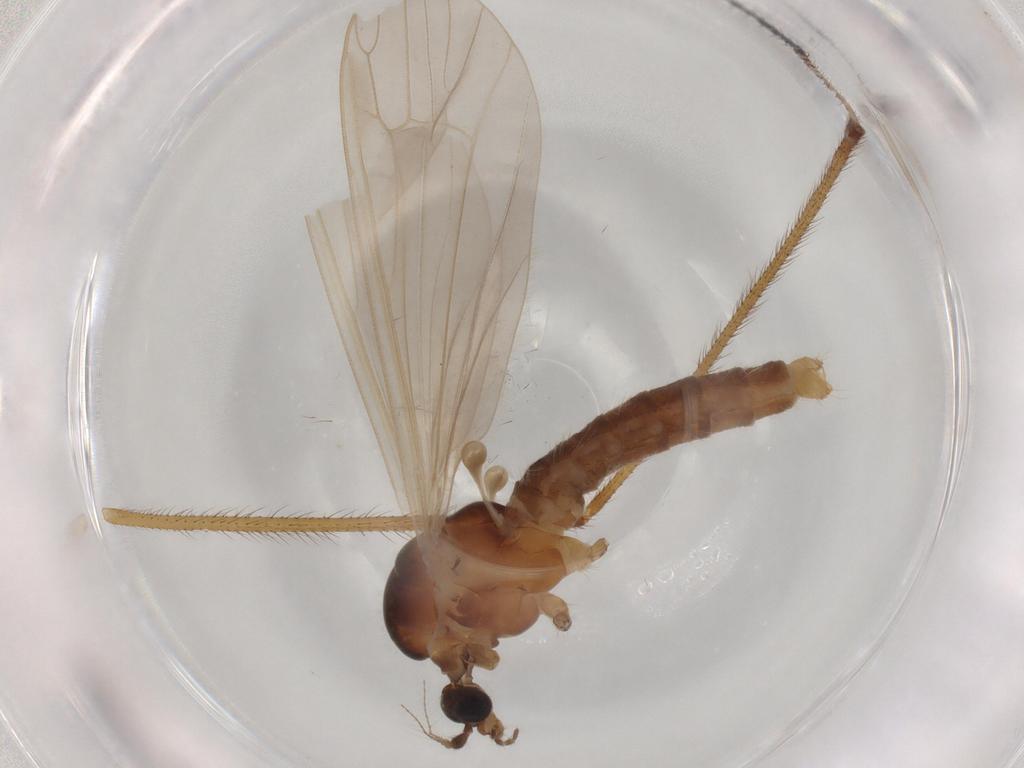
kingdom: Animalia
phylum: Arthropoda
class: Insecta
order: Diptera
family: Limoniidae
